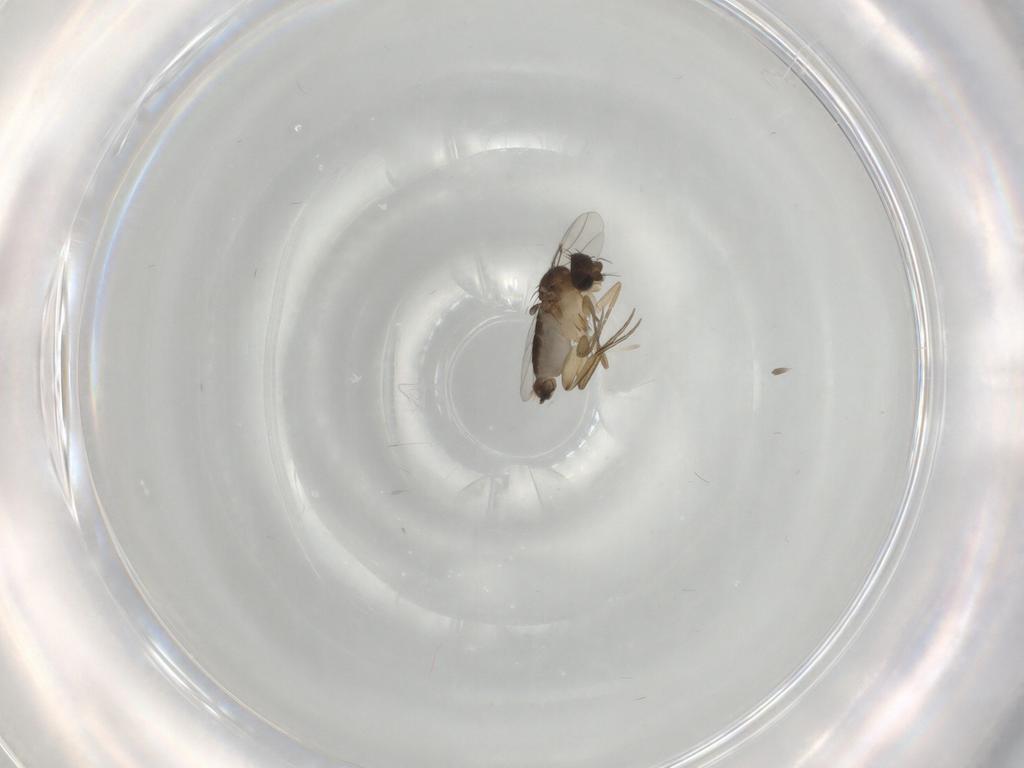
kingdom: Animalia
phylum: Arthropoda
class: Insecta
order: Diptera
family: Phoridae
